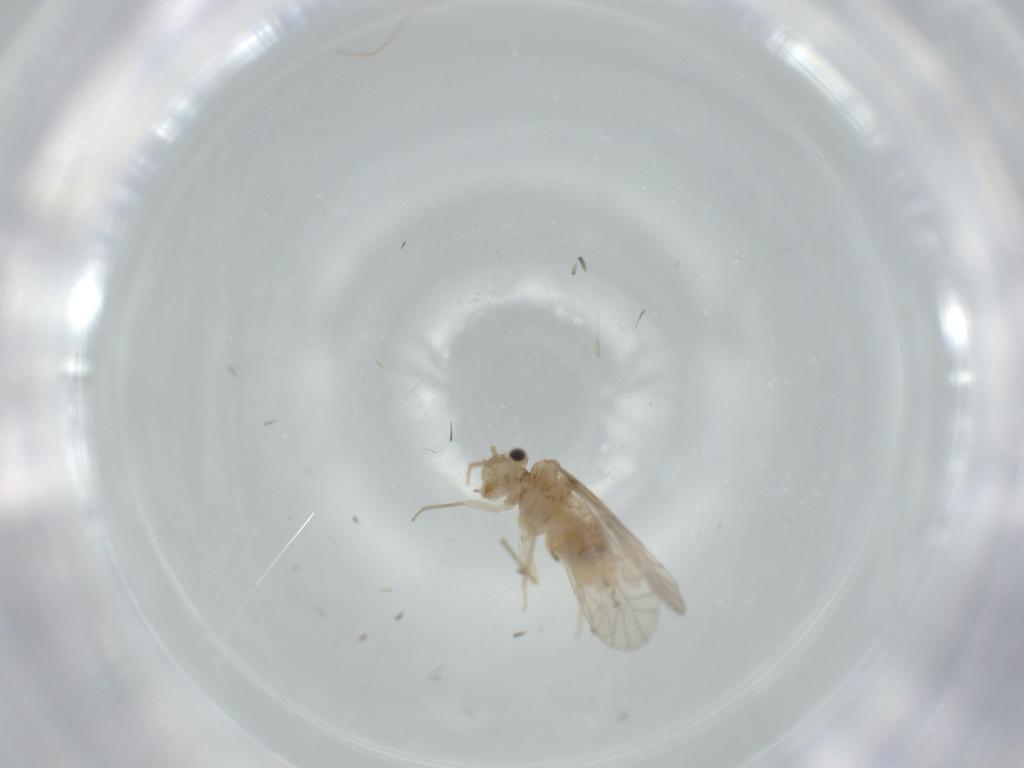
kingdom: Animalia
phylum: Arthropoda
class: Insecta
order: Psocodea
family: Lachesillidae
